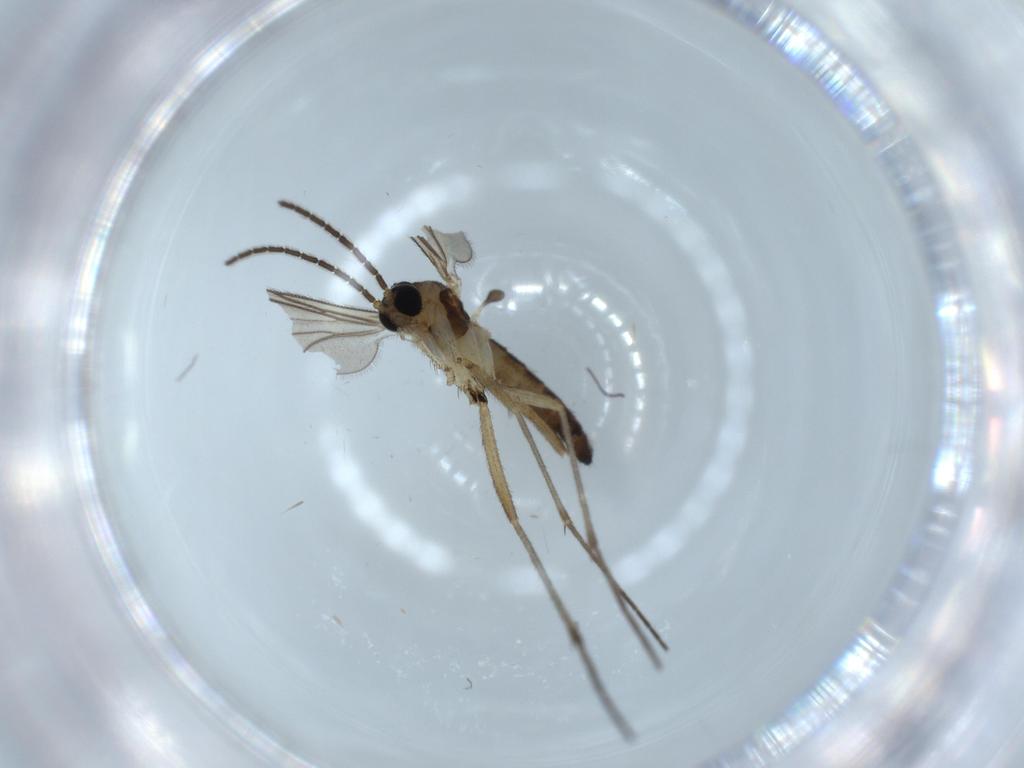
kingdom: Animalia
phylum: Arthropoda
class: Insecta
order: Diptera
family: Sciaridae
